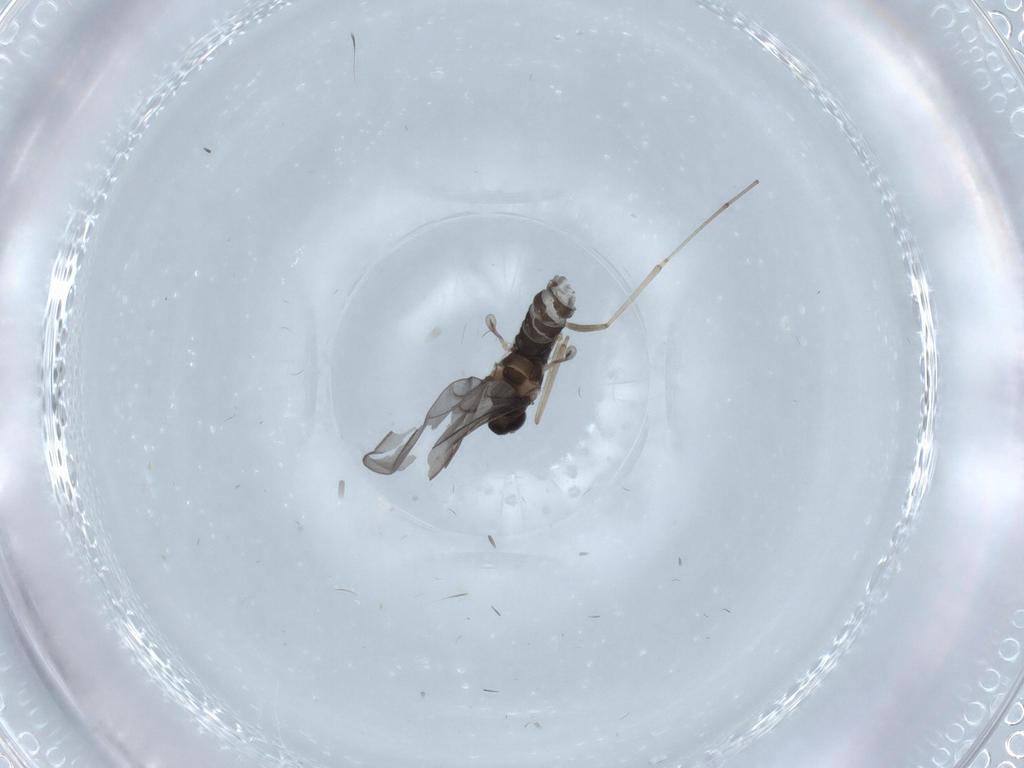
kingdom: Animalia
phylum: Arthropoda
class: Insecta
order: Diptera
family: Cecidomyiidae
